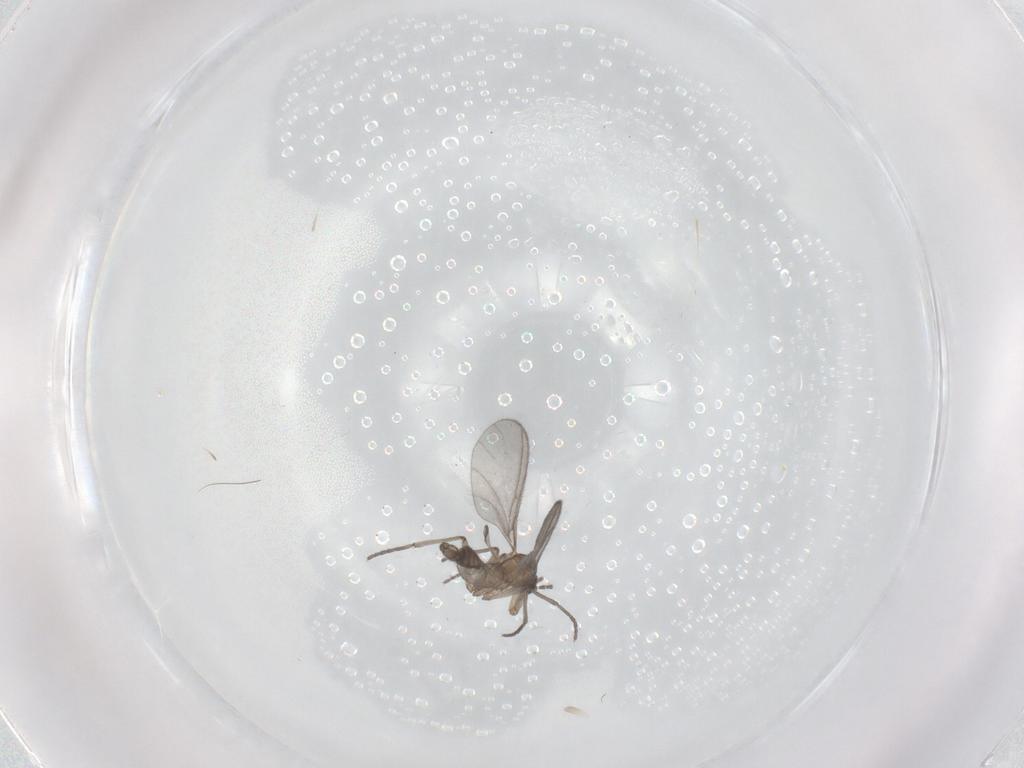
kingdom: Animalia
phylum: Arthropoda
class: Insecta
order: Diptera
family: Sciaridae
